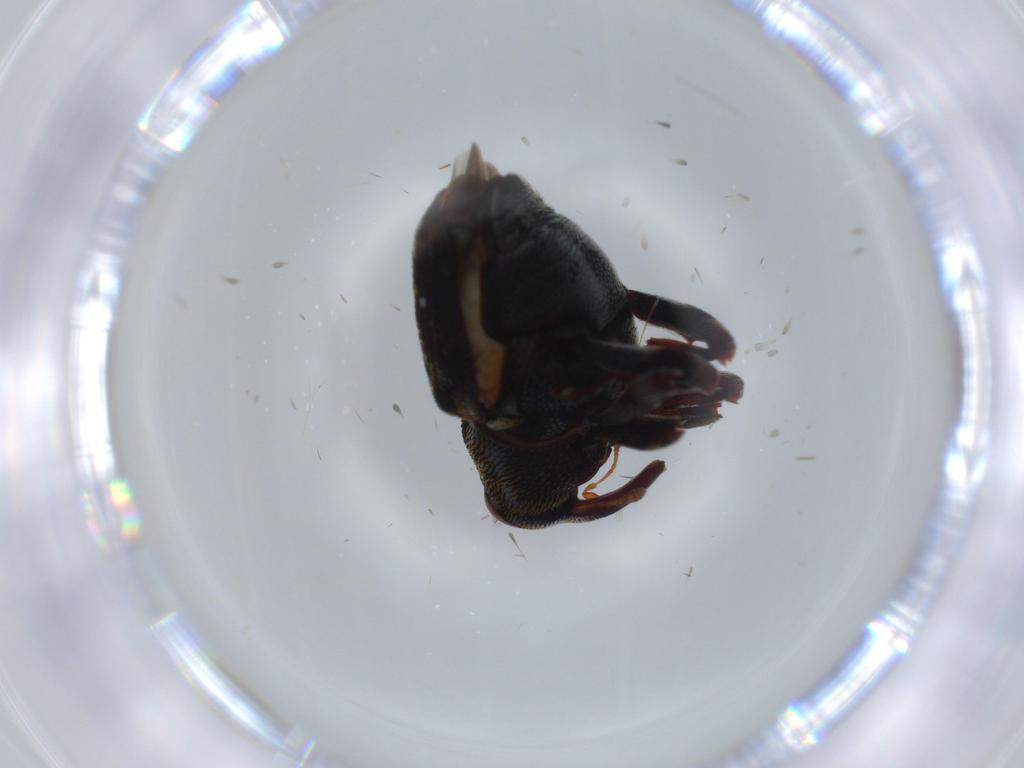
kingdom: Animalia
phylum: Arthropoda
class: Insecta
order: Coleoptera
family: Curculionidae
